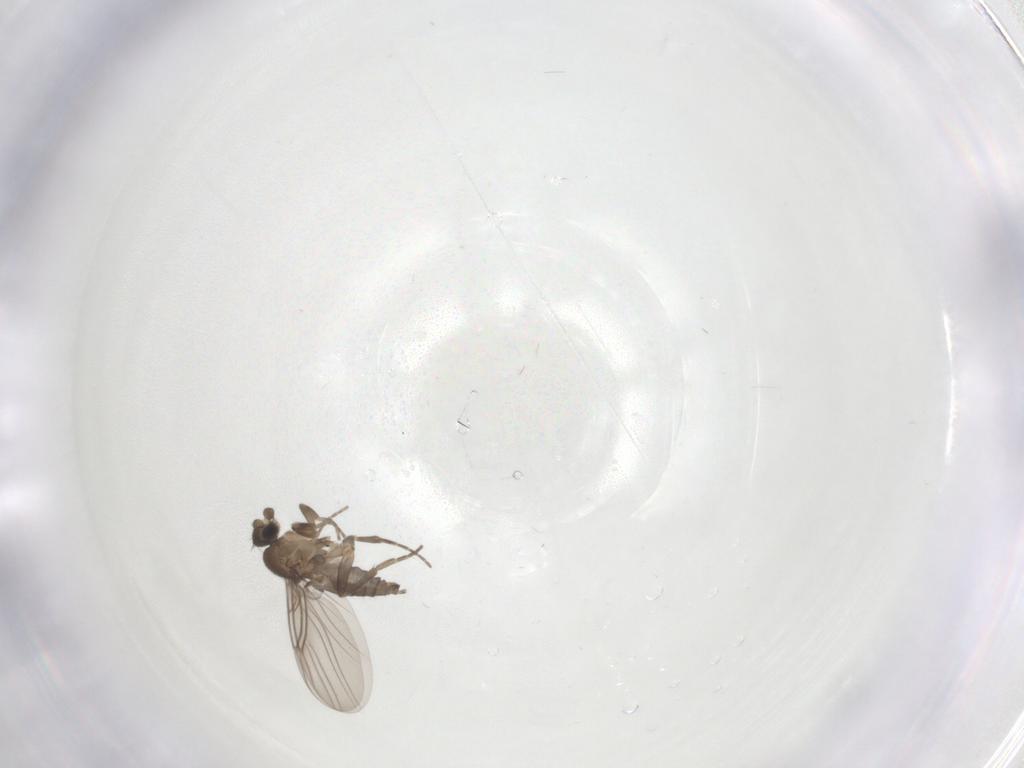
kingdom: Animalia
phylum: Arthropoda
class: Insecta
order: Diptera
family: Phoridae
